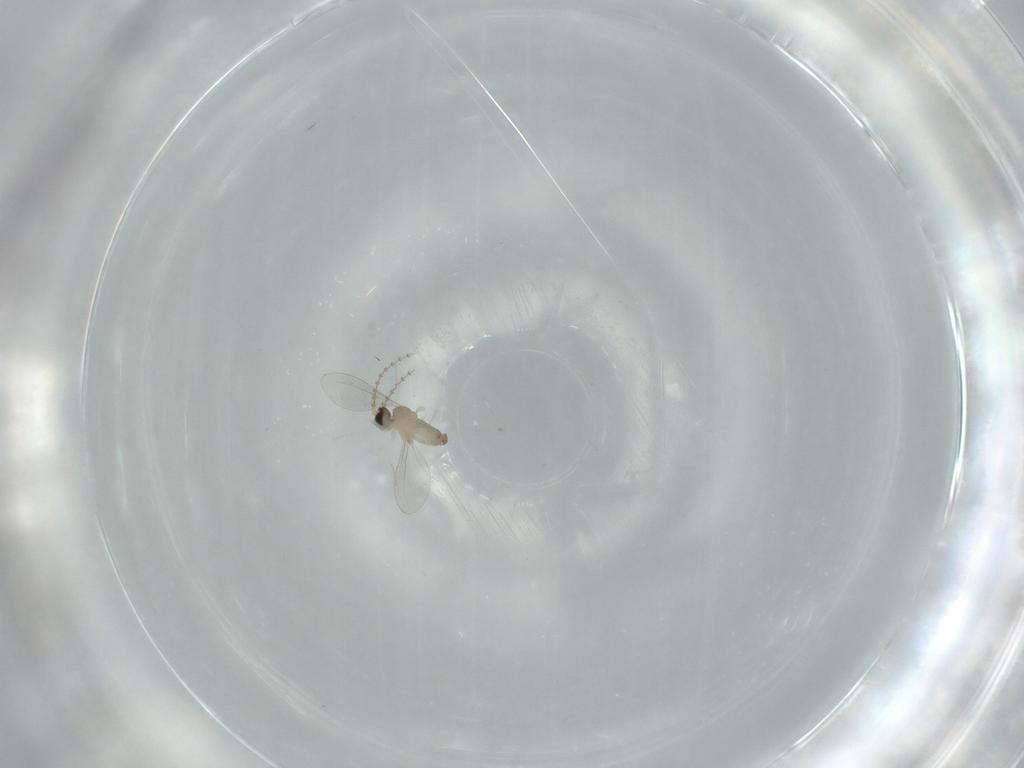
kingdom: Animalia
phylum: Arthropoda
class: Insecta
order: Diptera
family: Cecidomyiidae
